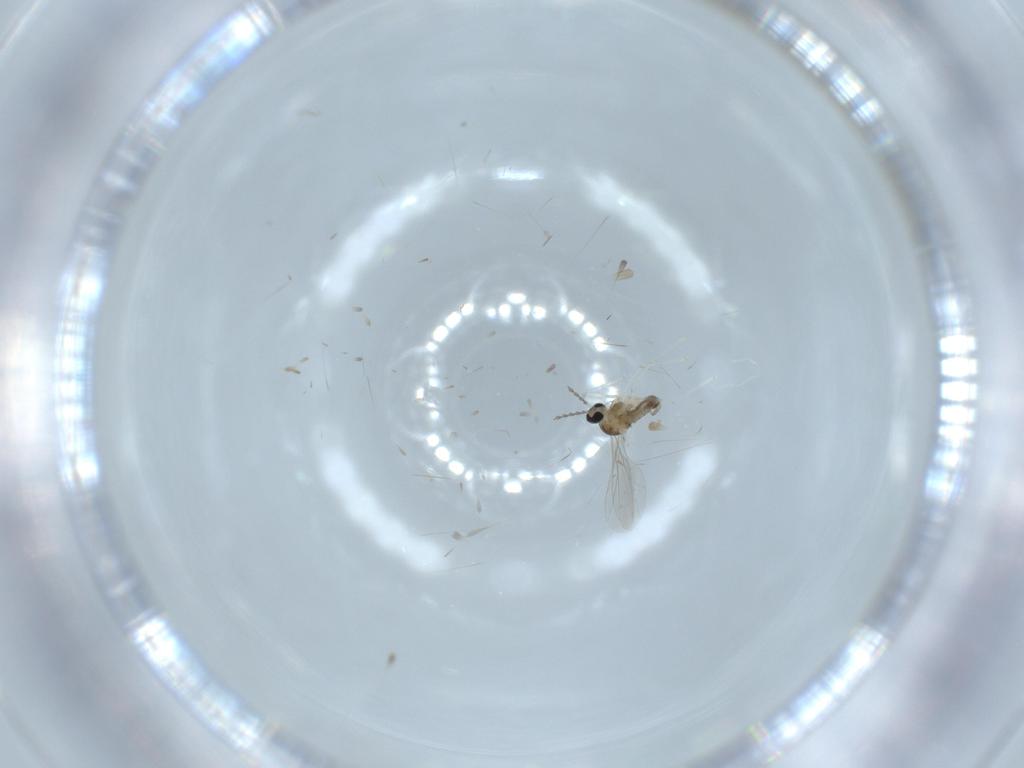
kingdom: Animalia
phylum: Arthropoda
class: Insecta
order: Diptera
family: Cecidomyiidae
